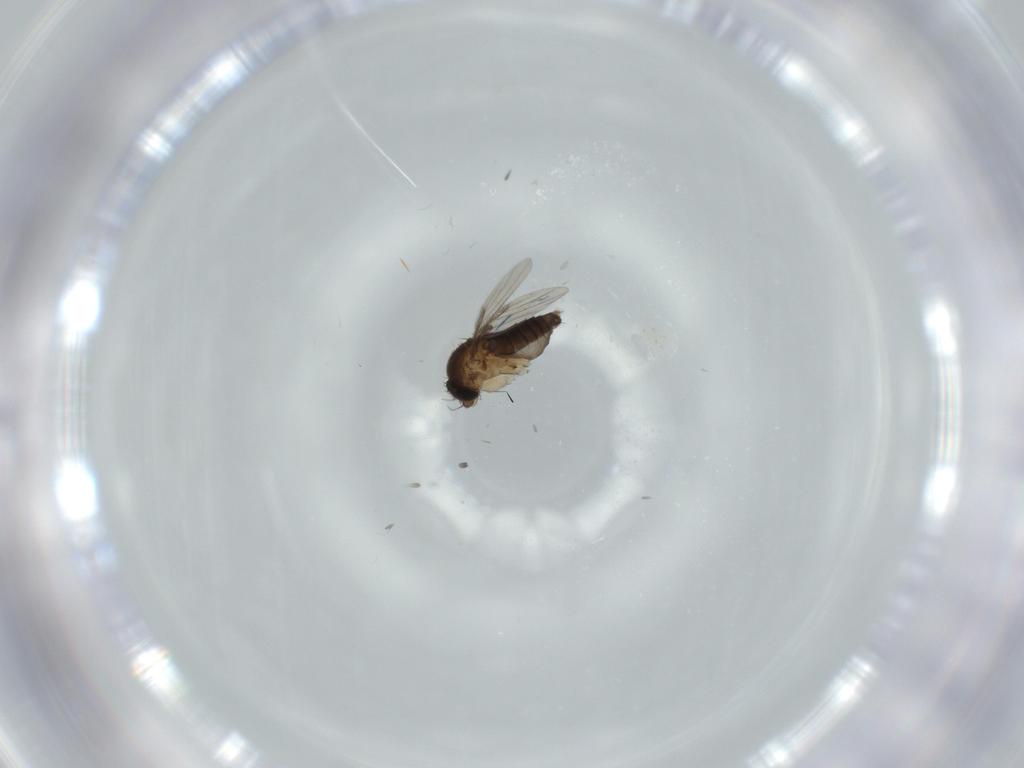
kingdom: Animalia
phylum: Arthropoda
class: Insecta
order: Diptera
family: Phoridae
